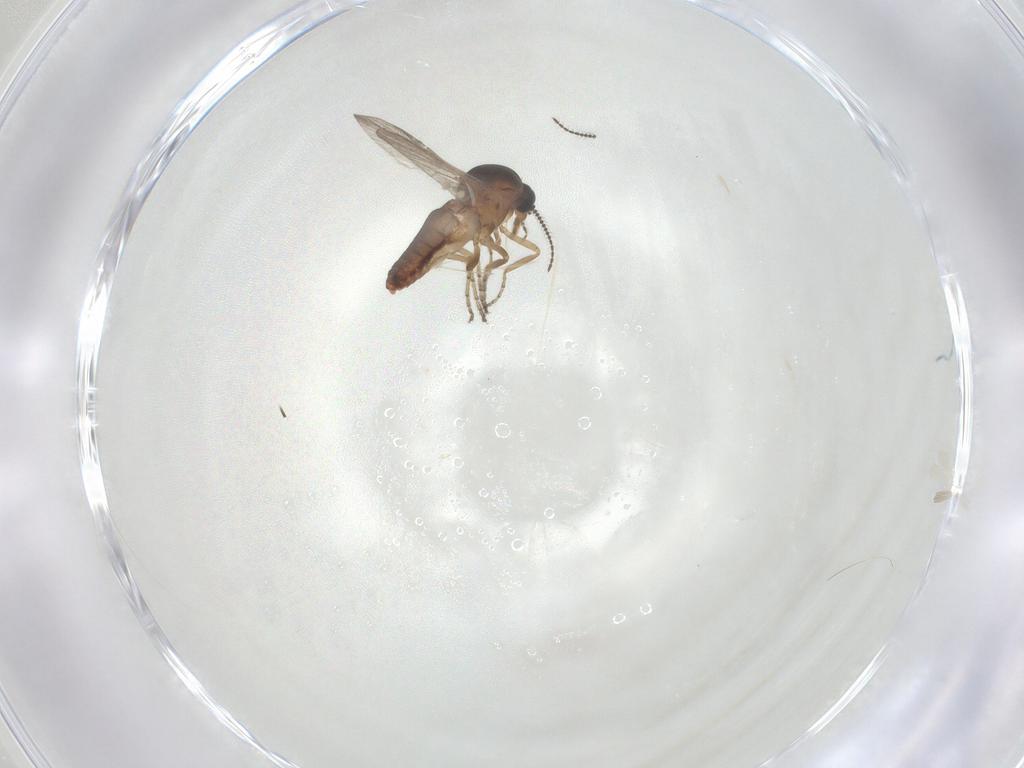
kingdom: Animalia
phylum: Arthropoda
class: Insecta
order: Diptera
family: Ceratopogonidae
